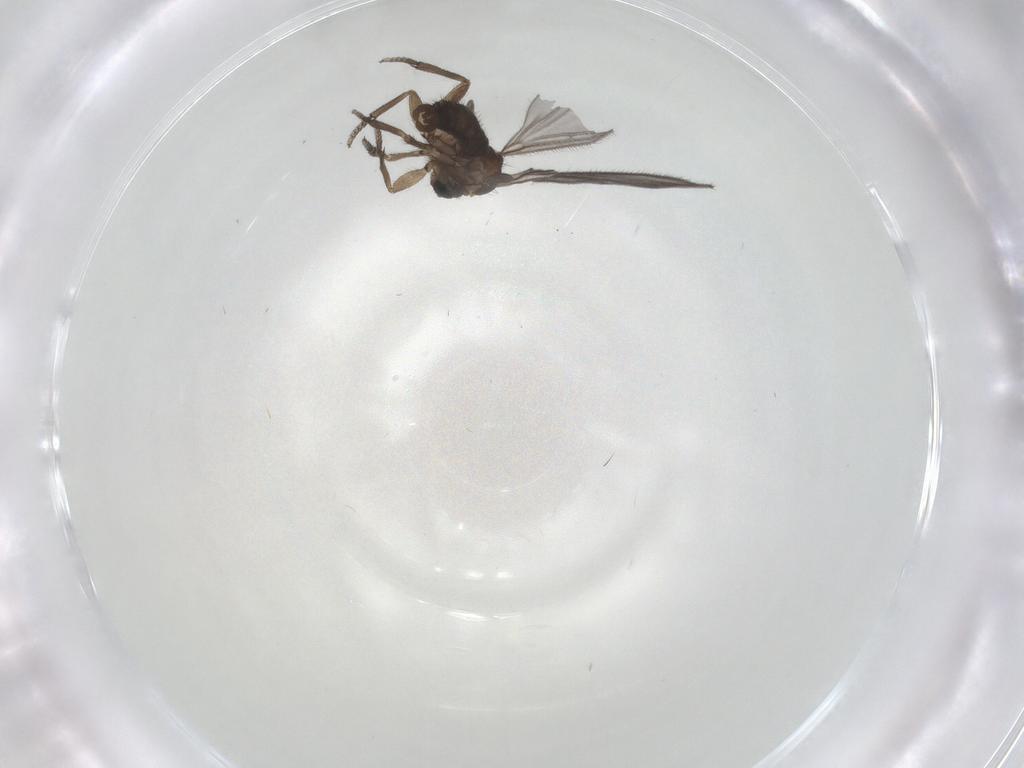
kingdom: Animalia
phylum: Arthropoda
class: Insecta
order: Diptera
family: Sciaridae
